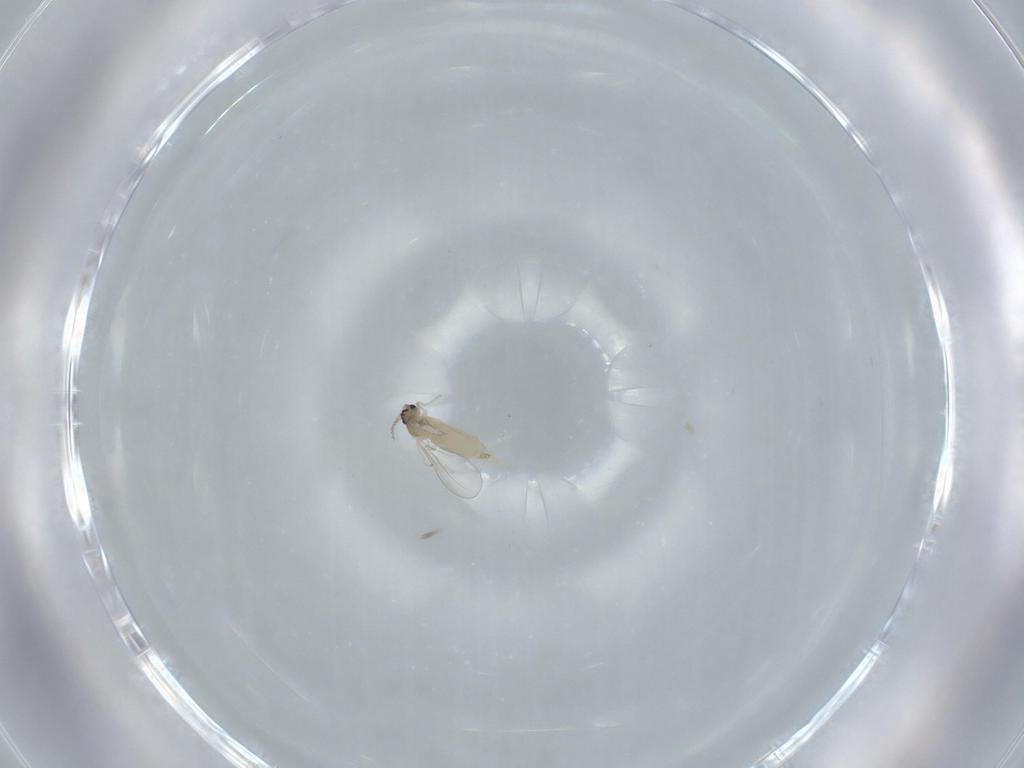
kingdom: Animalia
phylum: Arthropoda
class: Insecta
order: Diptera
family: Cecidomyiidae
